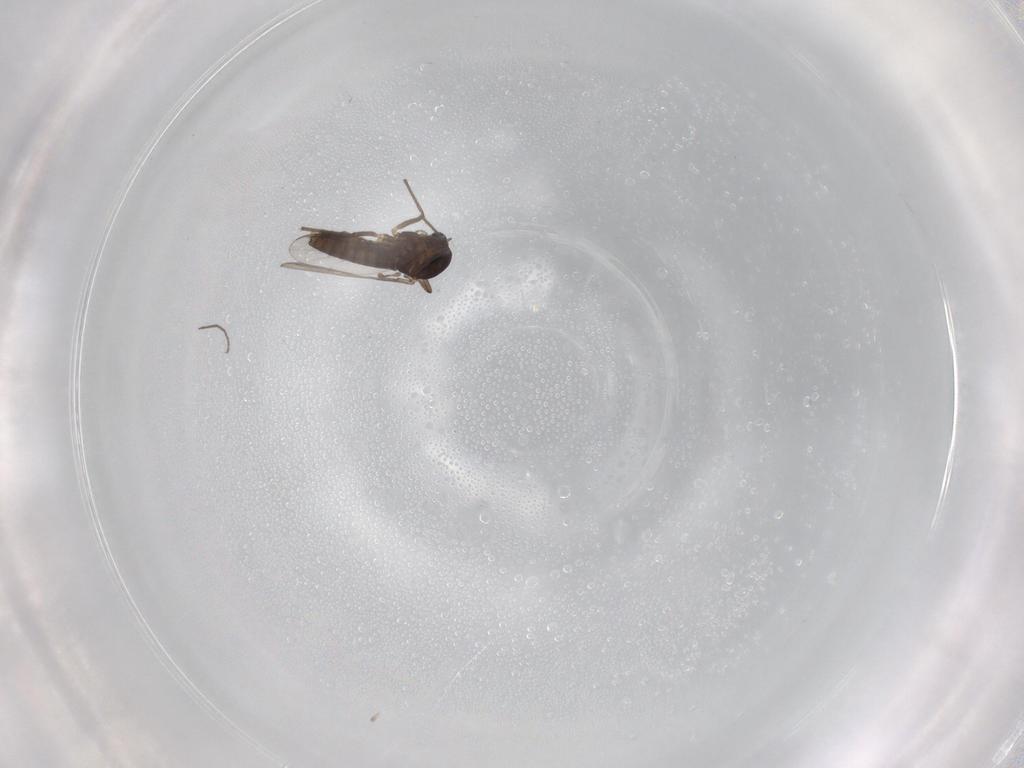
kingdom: Animalia
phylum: Arthropoda
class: Insecta
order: Diptera
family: Chironomidae
